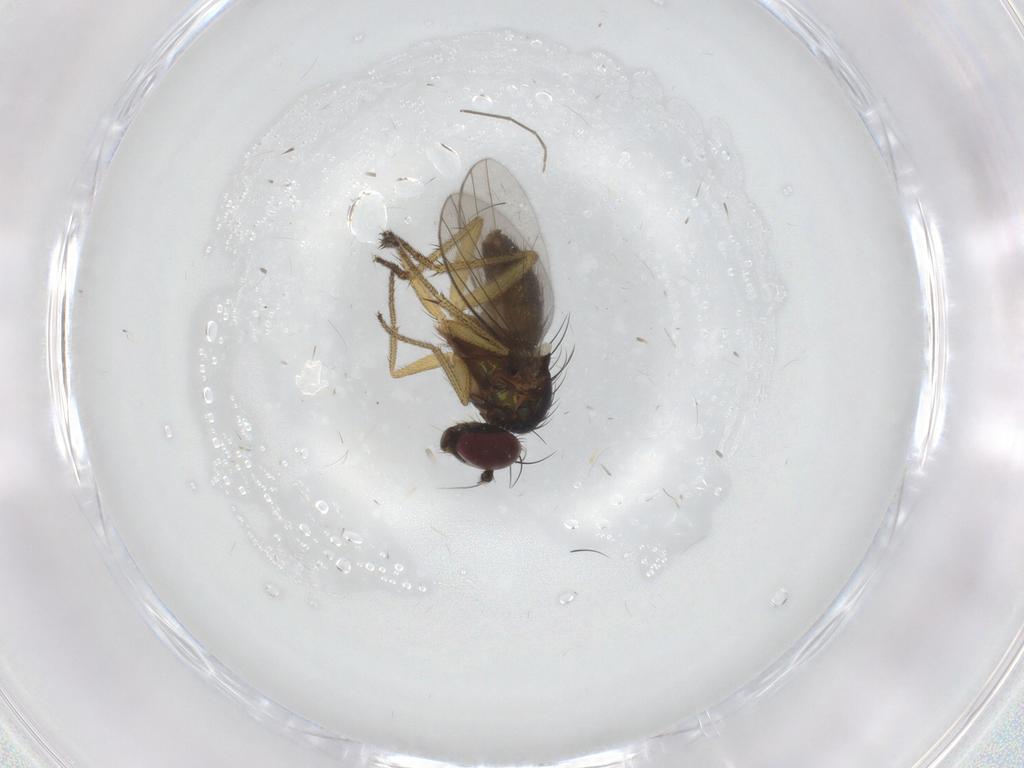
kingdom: Animalia
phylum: Arthropoda
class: Insecta
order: Diptera
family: Dolichopodidae
